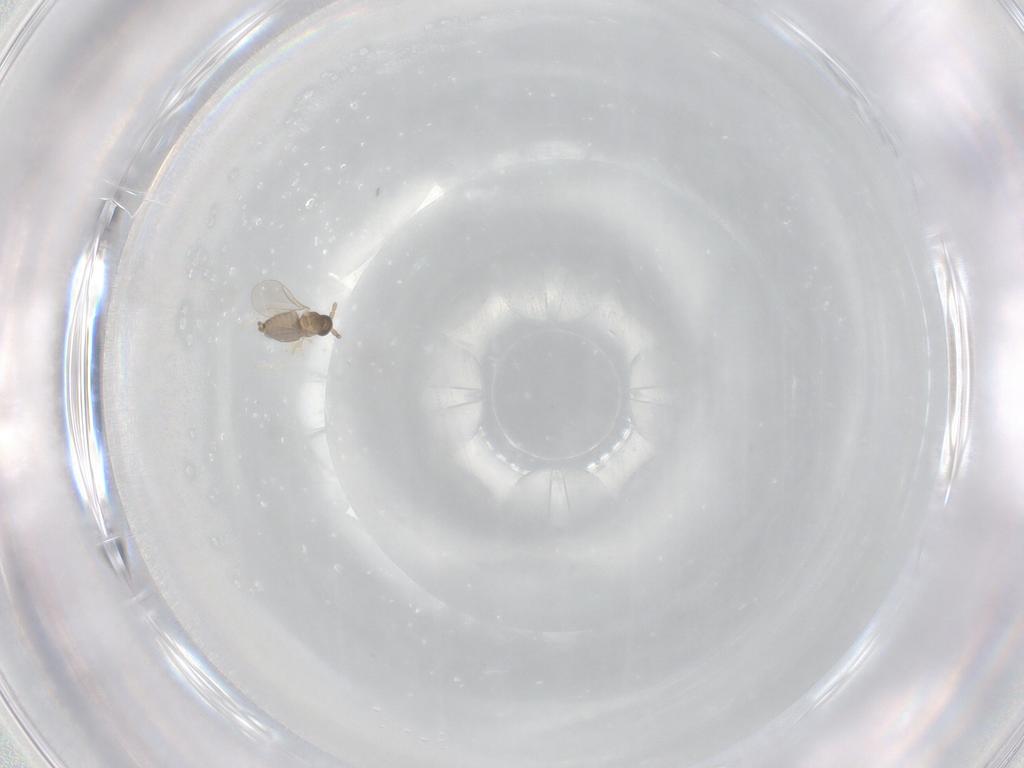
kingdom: Animalia
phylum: Arthropoda
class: Insecta
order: Diptera
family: Cecidomyiidae
